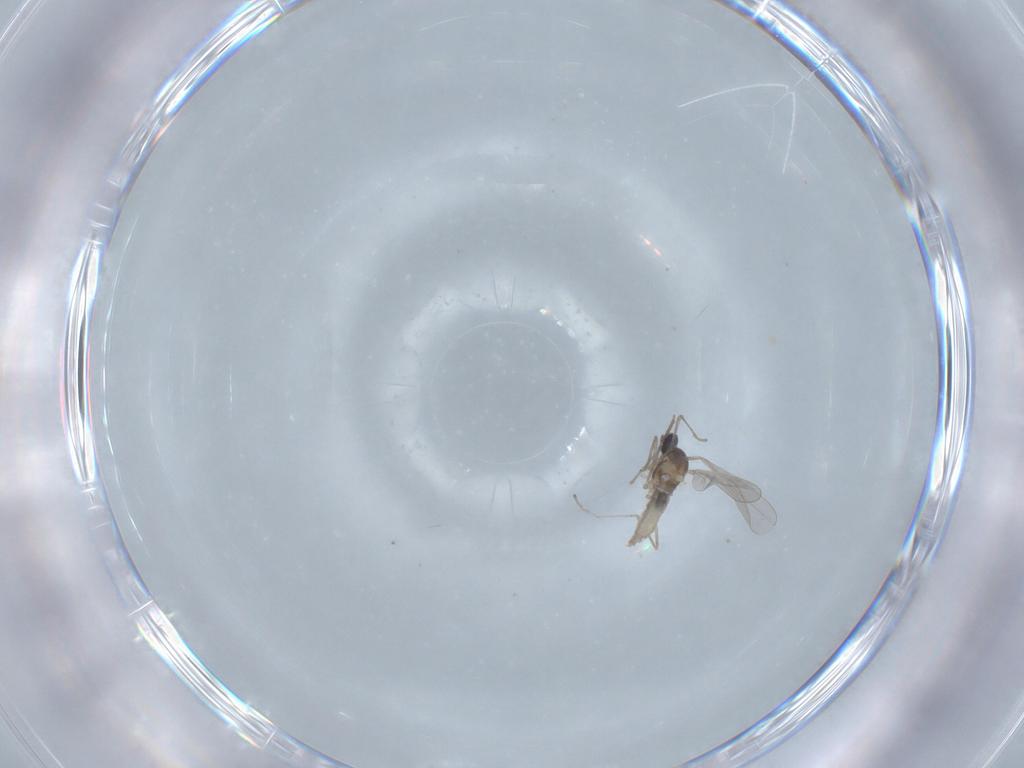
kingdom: Animalia
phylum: Arthropoda
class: Insecta
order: Diptera
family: Cecidomyiidae
